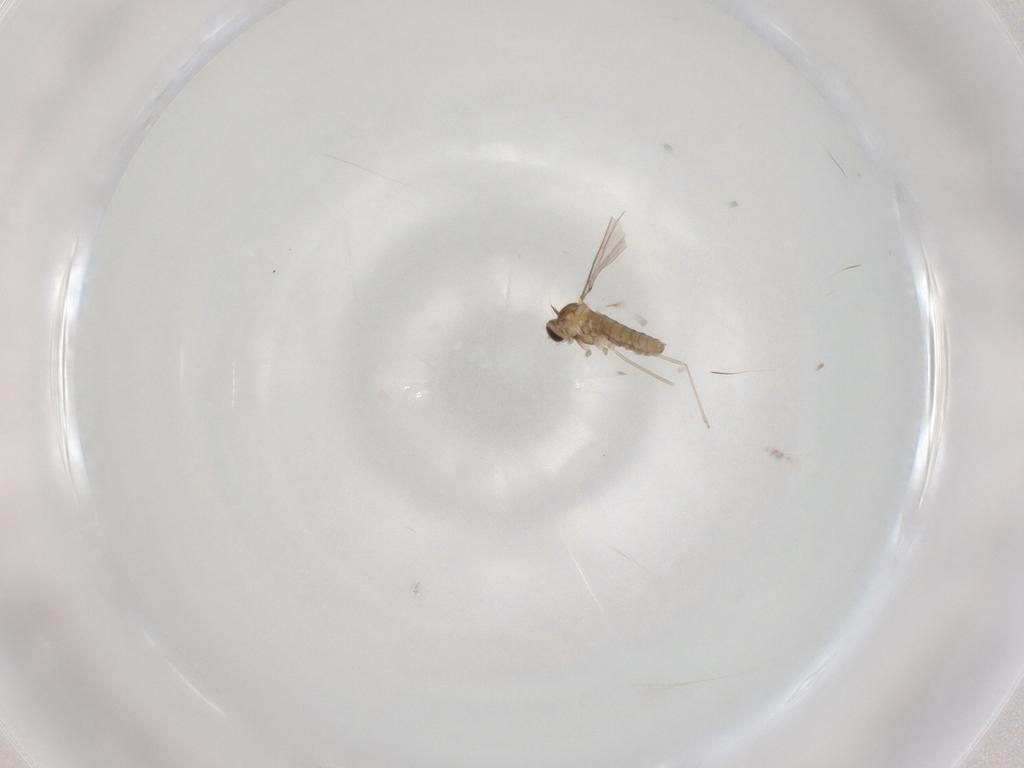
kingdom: Animalia
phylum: Arthropoda
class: Insecta
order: Diptera
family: Cecidomyiidae
